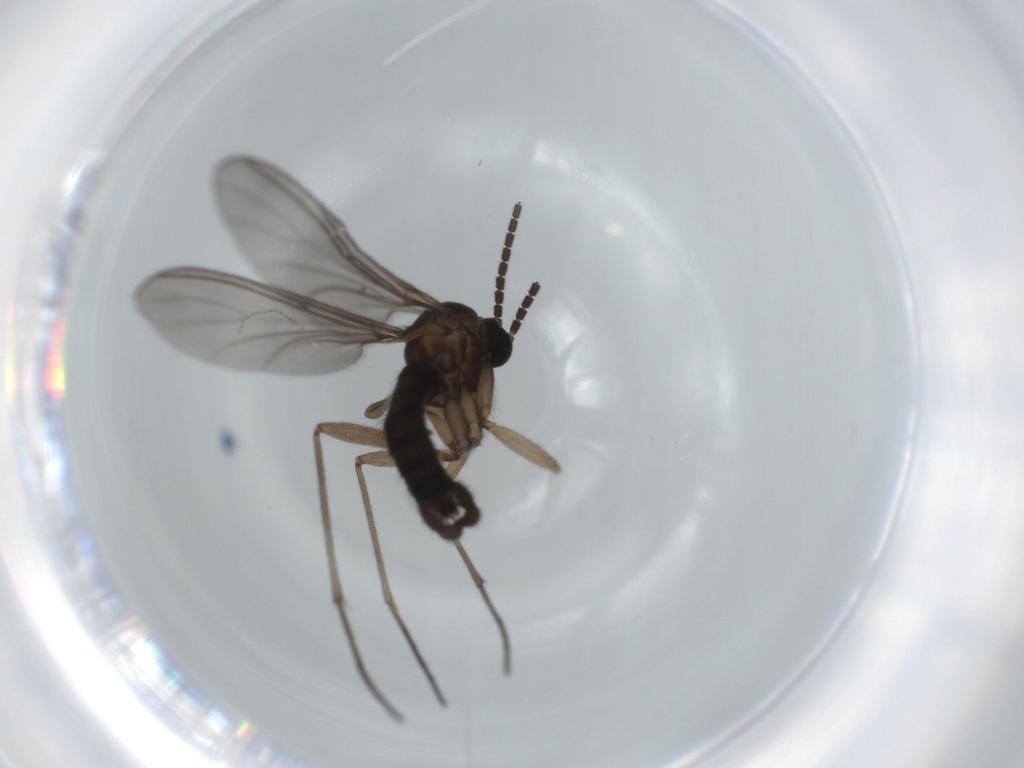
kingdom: Animalia
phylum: Arthropoda
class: Insecta
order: Diptera
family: Sciaridae
